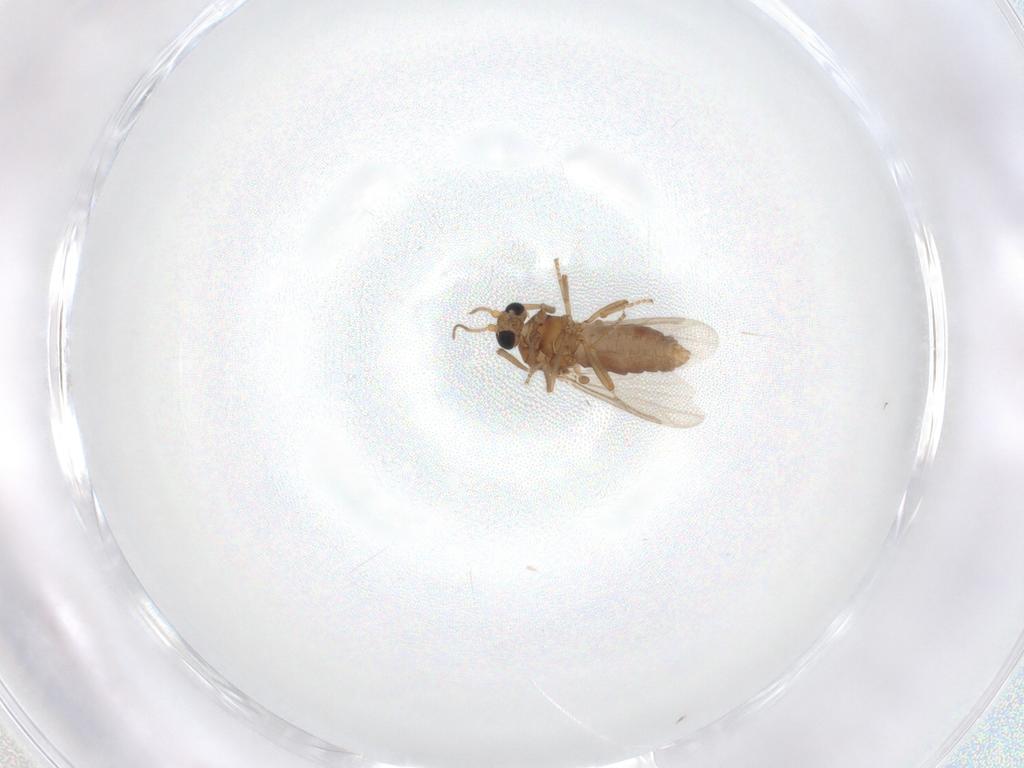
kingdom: Animalia
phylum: Arthropoda
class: Insecta
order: Diptera
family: Ceratopogonidae
